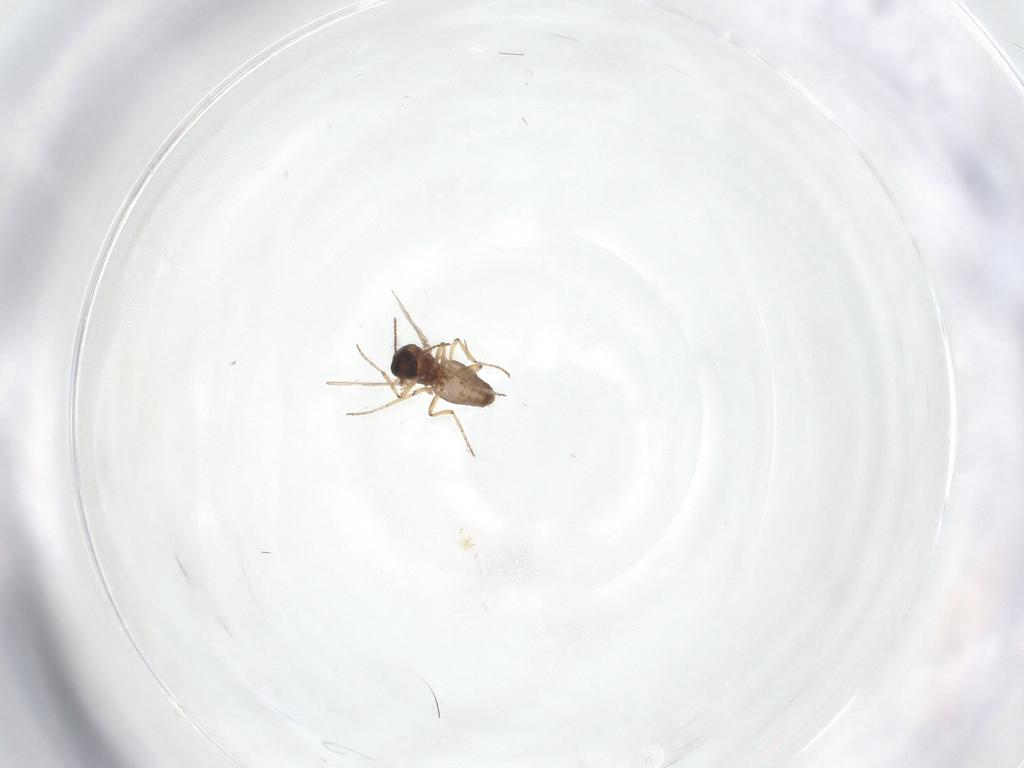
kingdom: Animalia
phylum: Arthropoda
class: Insecta
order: Diptera
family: Ceratopogonidae
